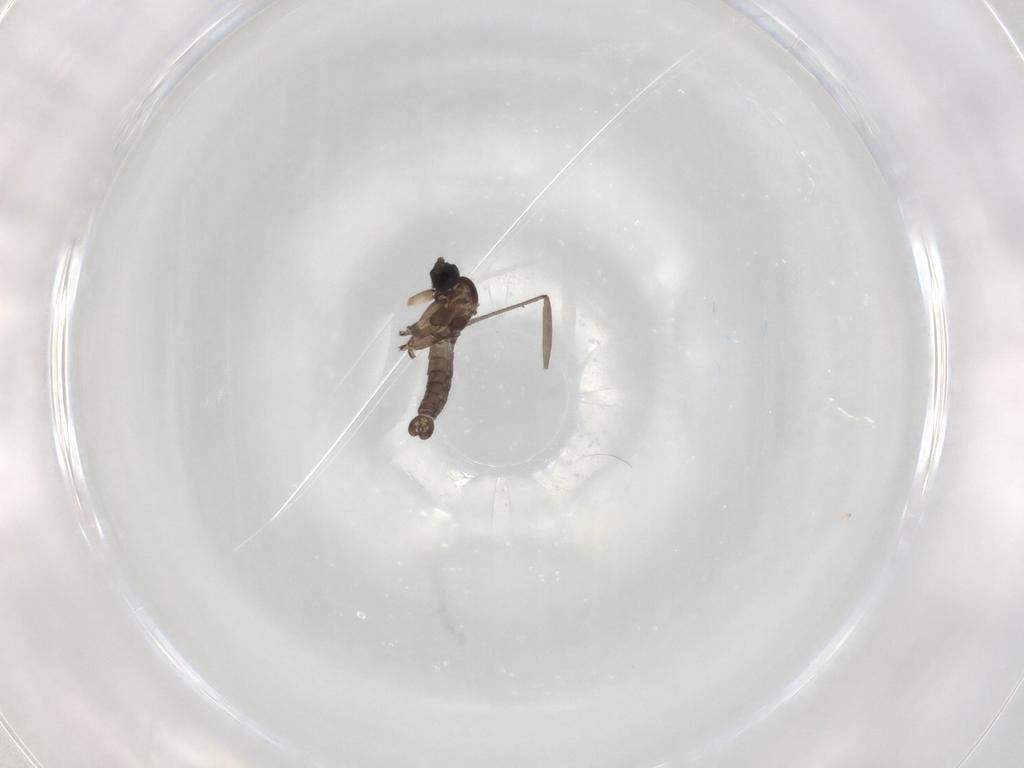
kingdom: Animalia
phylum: Arthropoda
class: Insecta
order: Diptera
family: Sciaridae
